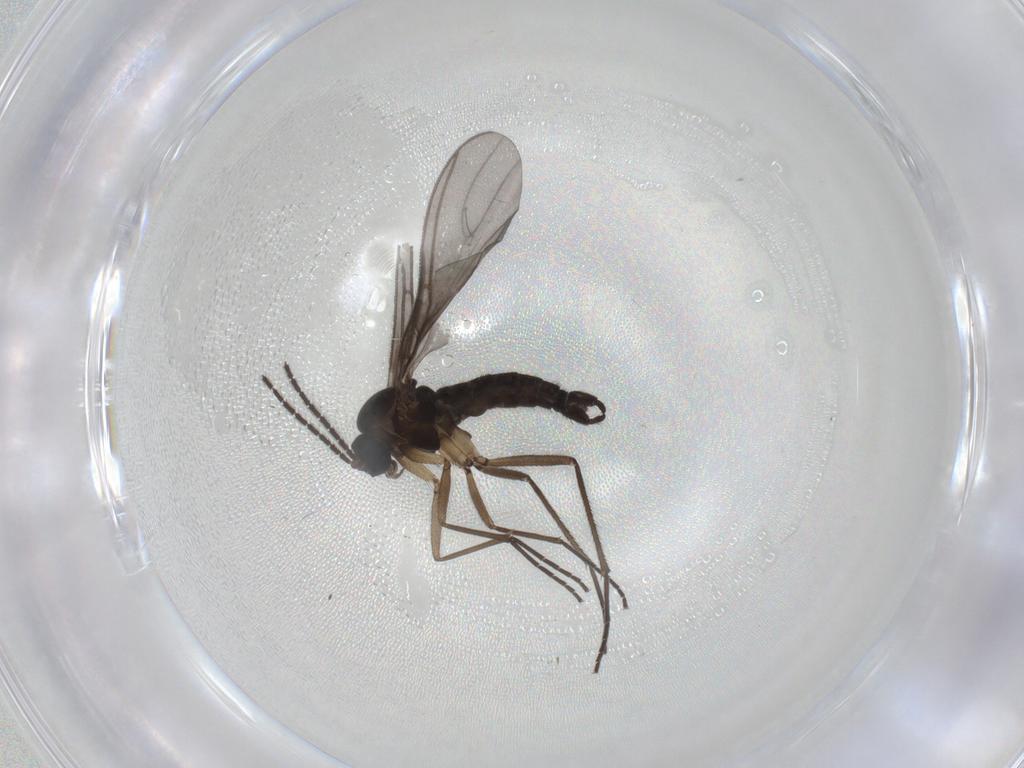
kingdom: Animalia
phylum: Arthropoda
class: Insecta
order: Diptera
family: Sciaridae
